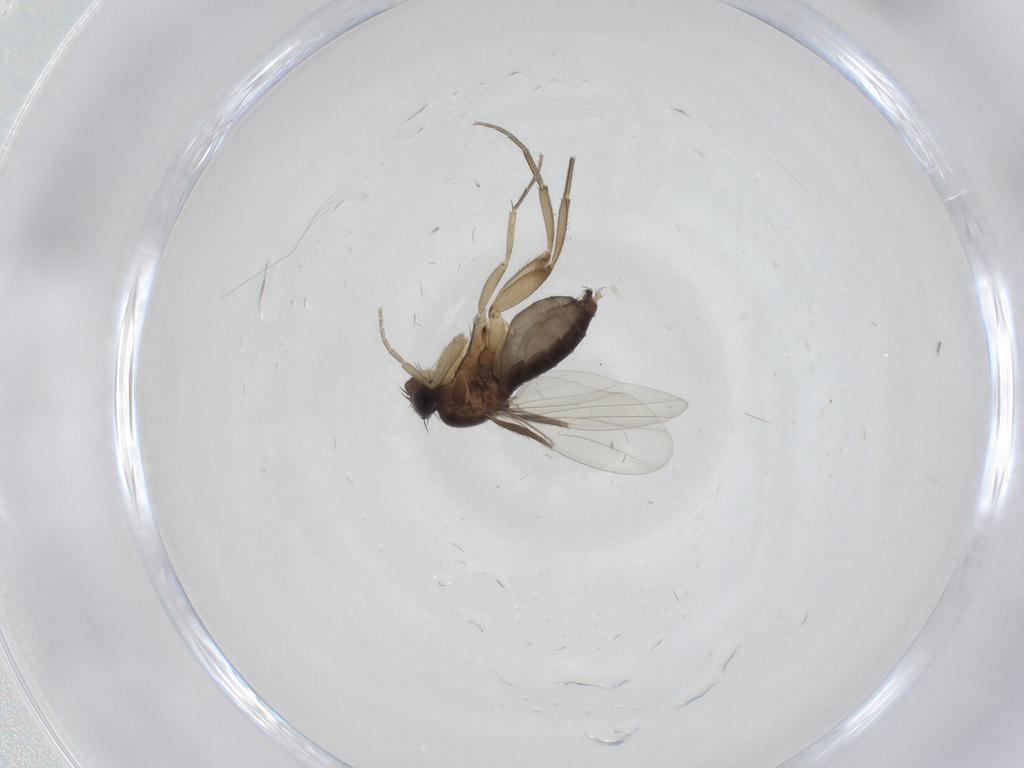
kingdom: Animalia
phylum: Arthropoda
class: Insecta
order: Diptera
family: Phoridae
